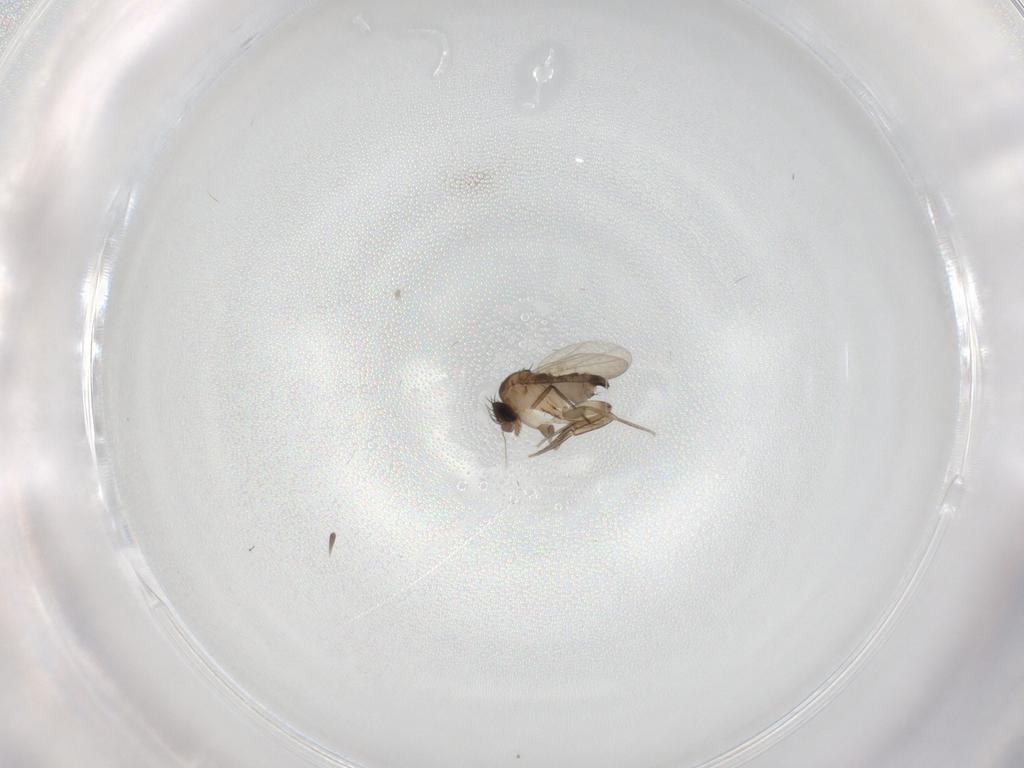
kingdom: Animalia
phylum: Arthropoda
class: Insecta
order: Diptera
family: Phoridae
